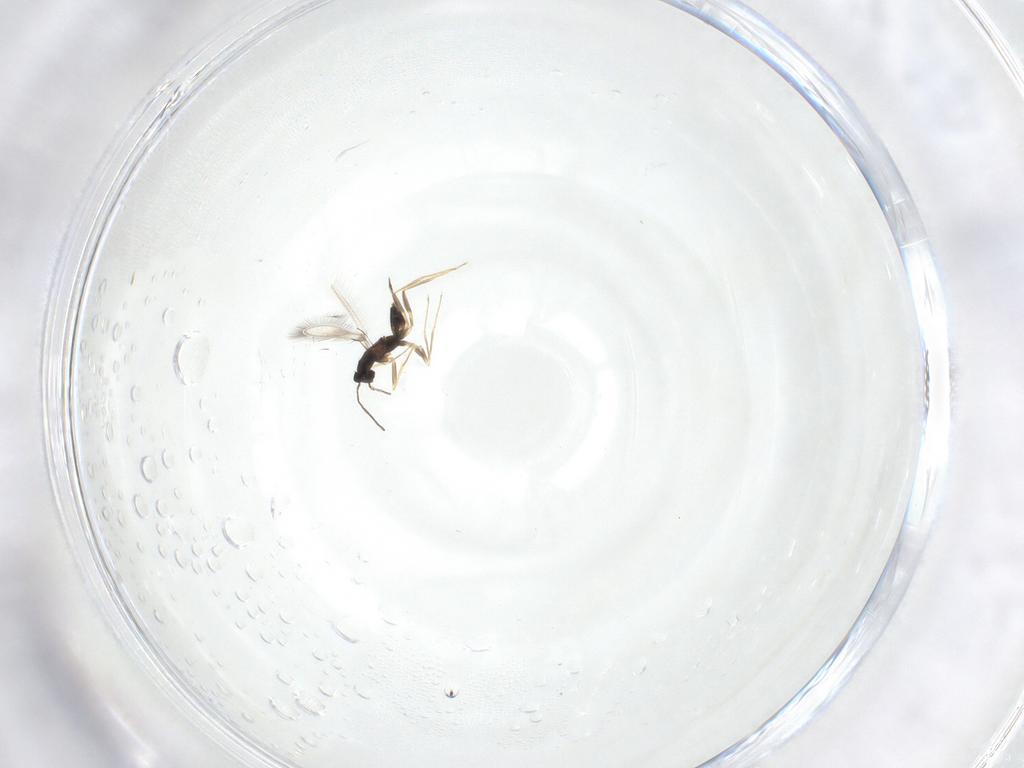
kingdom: Animalia
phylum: Arthropoda
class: Insecta
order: Hymenoptera
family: Mymaridae
